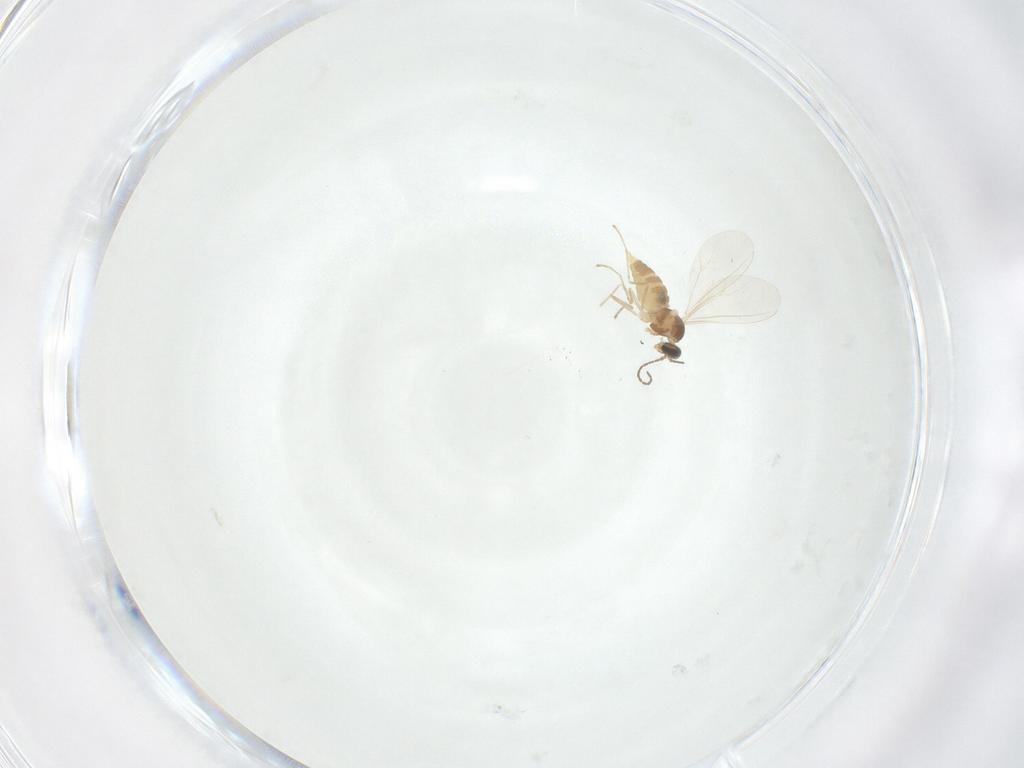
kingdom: Animalia
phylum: Arthropoda
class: Insecta
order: Diptera
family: Cecidomyiidae
